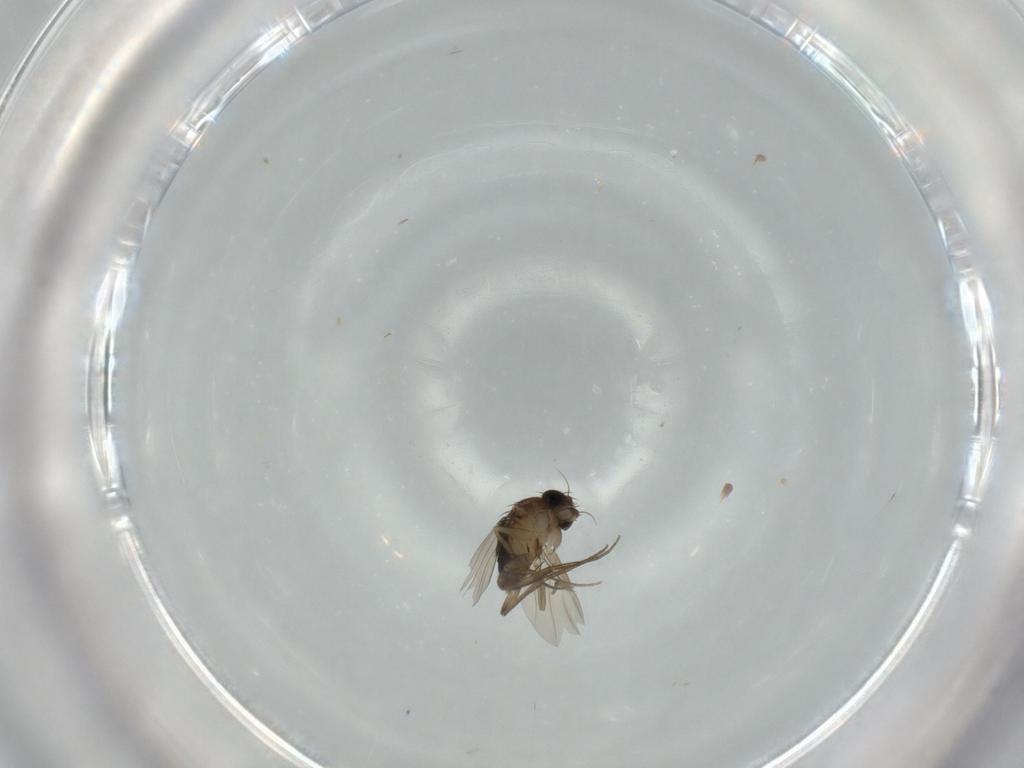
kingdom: Animalia
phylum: Arthropoda
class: Insecta
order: Diptera
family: Phoridae
